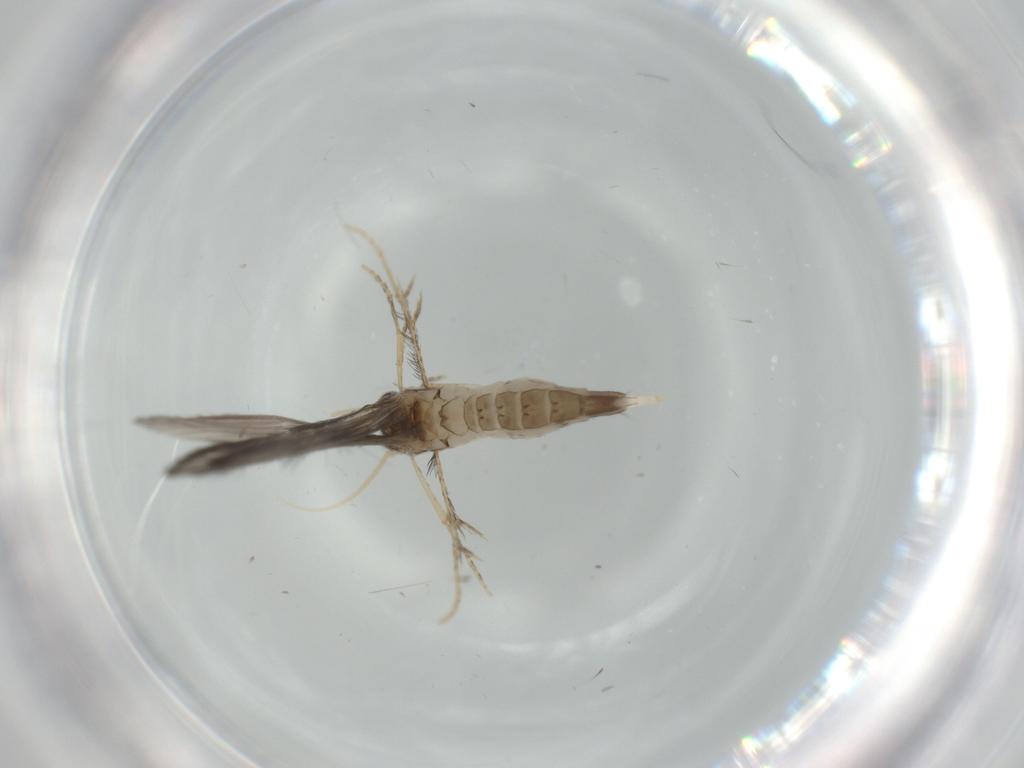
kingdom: Animalia
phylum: Arthropoda
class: Insecta
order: Trichoptera
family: Hydroptilidae
